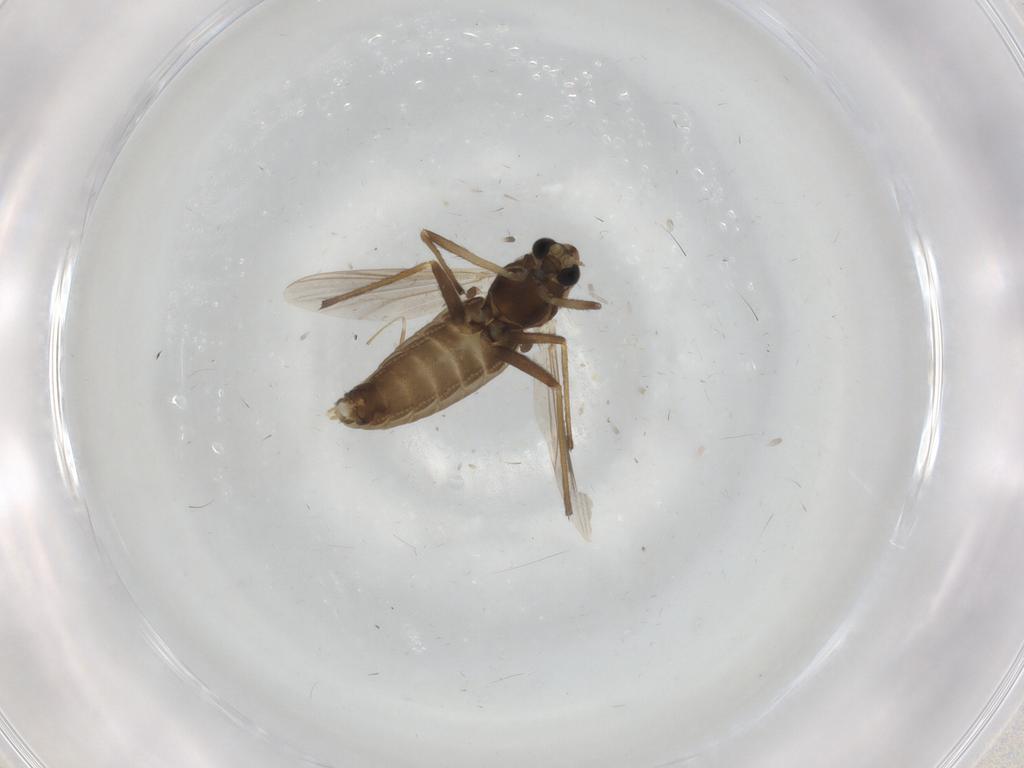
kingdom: Animalia
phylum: Arthropoda
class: Insecta
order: Diptera
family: Chironomidae
